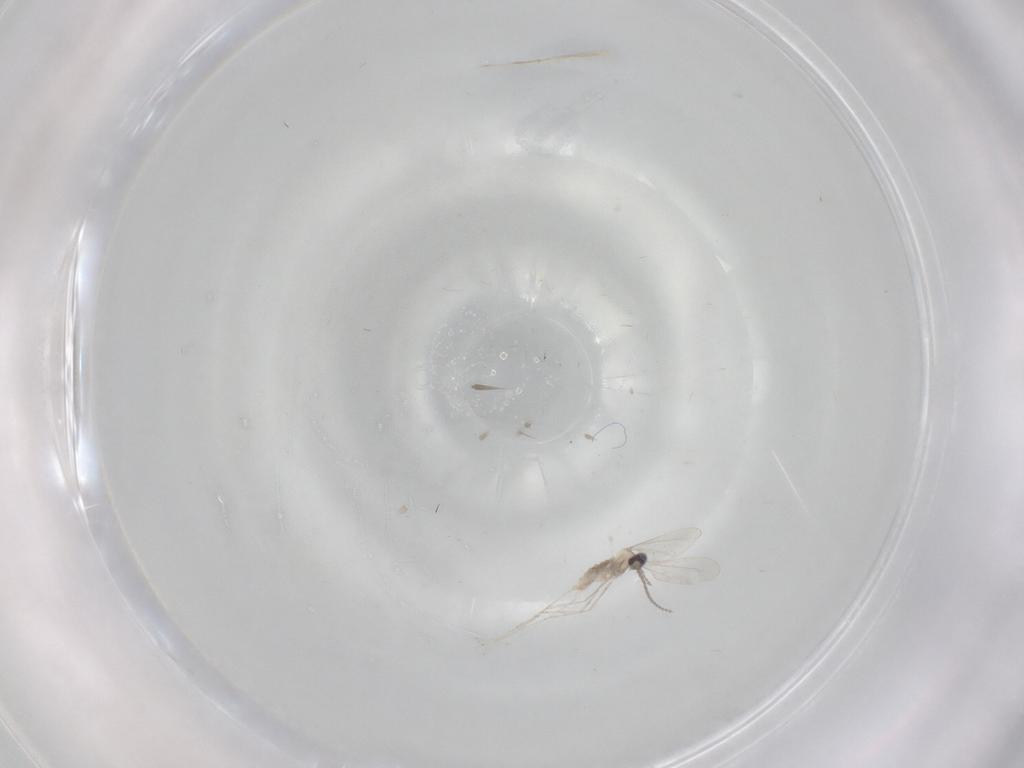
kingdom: Animalia
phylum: Arthropoda
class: Insecta
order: Diptera
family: Cecidomyiidae
